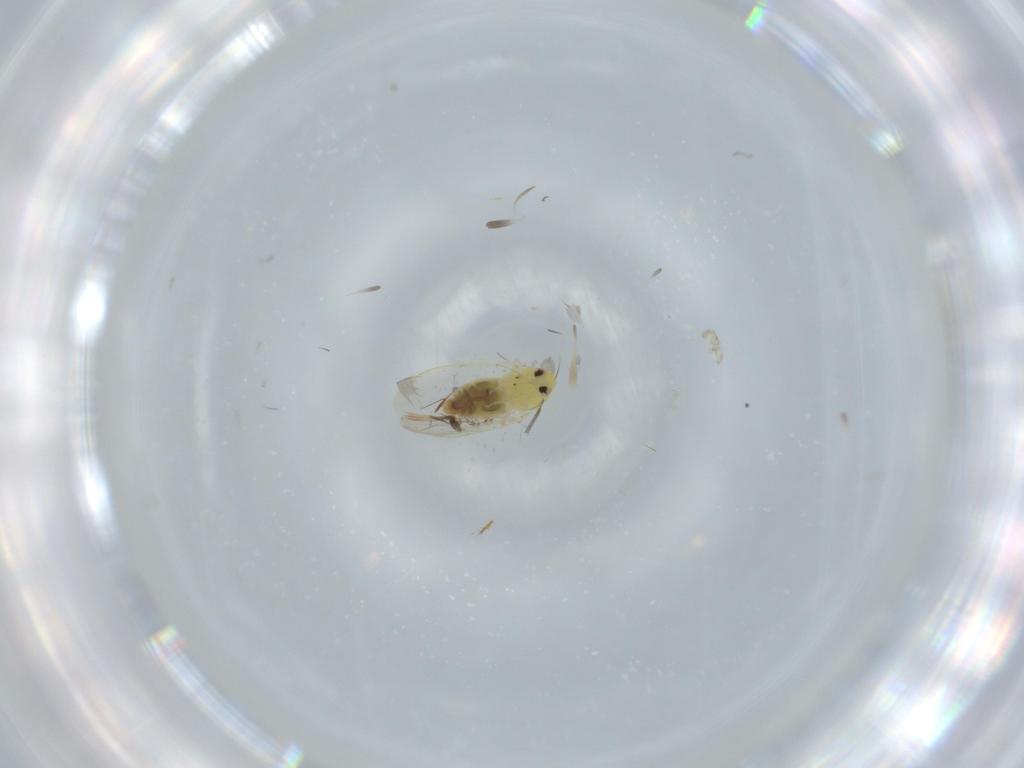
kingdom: Animalia
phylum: Arthropoda
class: Insecta
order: Hemiptera
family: Aleyrodidae
